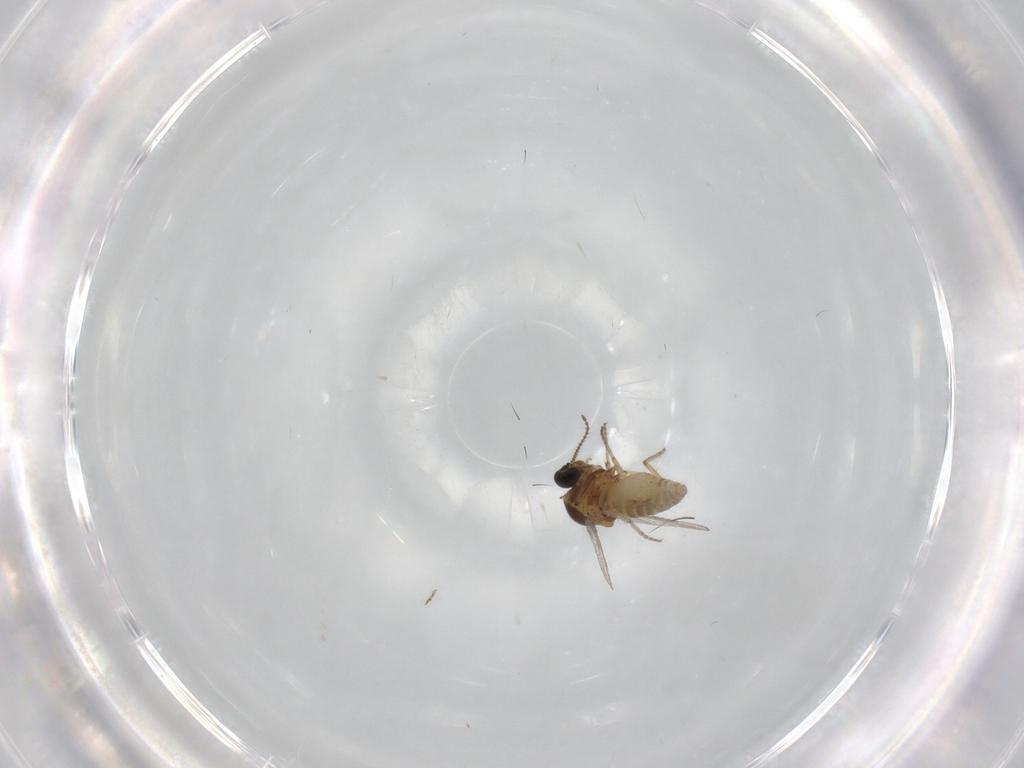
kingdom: Animalia
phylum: Arthropoda
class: Insecta
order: Diptera
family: Ceratopogonidae
